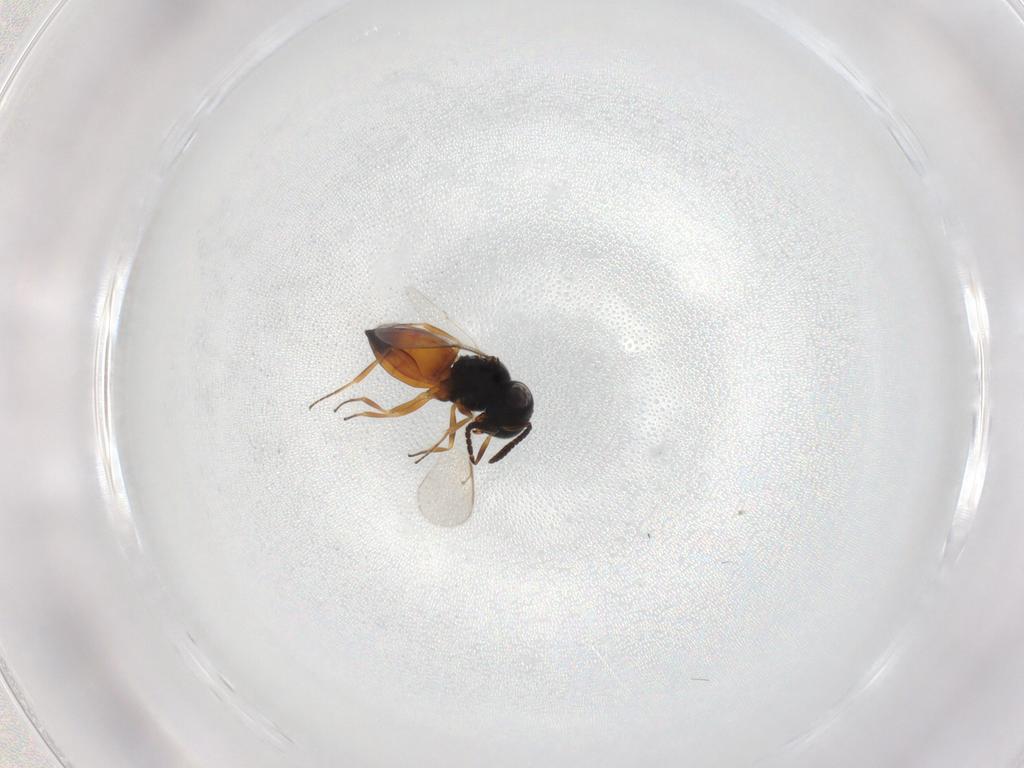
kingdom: Animalia
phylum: Arthropoda
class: Insecta
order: Hymenoptera
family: Scelionidae
